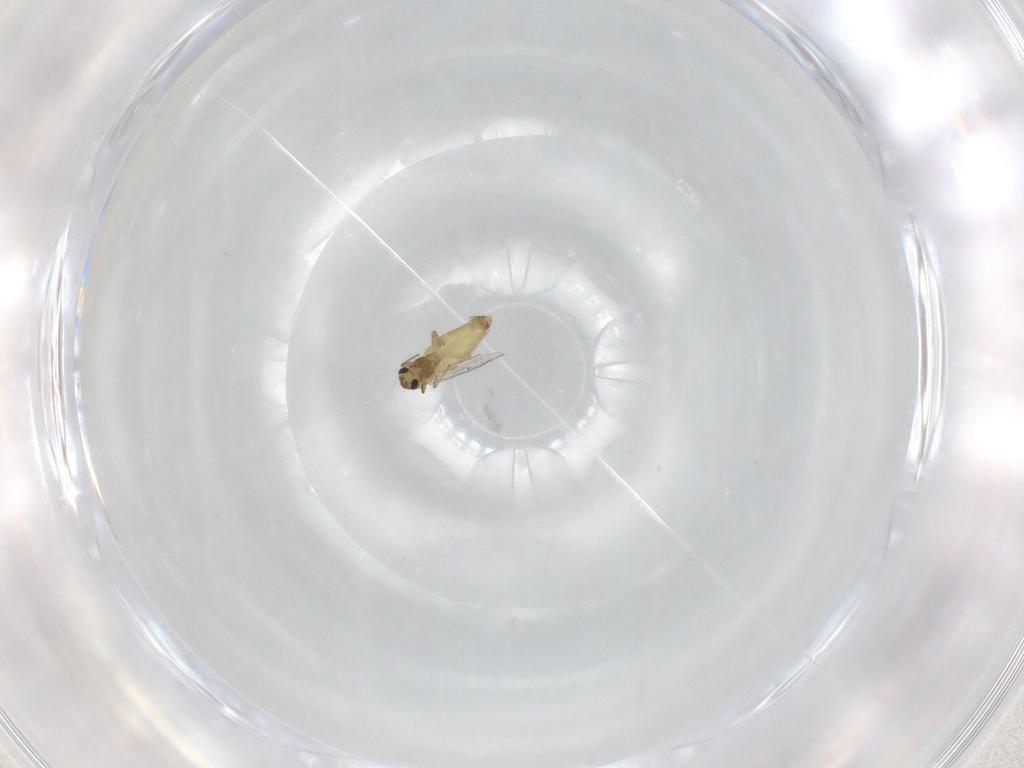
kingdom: Animalia
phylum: Arthropoda
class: Insecta
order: Diptera
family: Chironomidae
